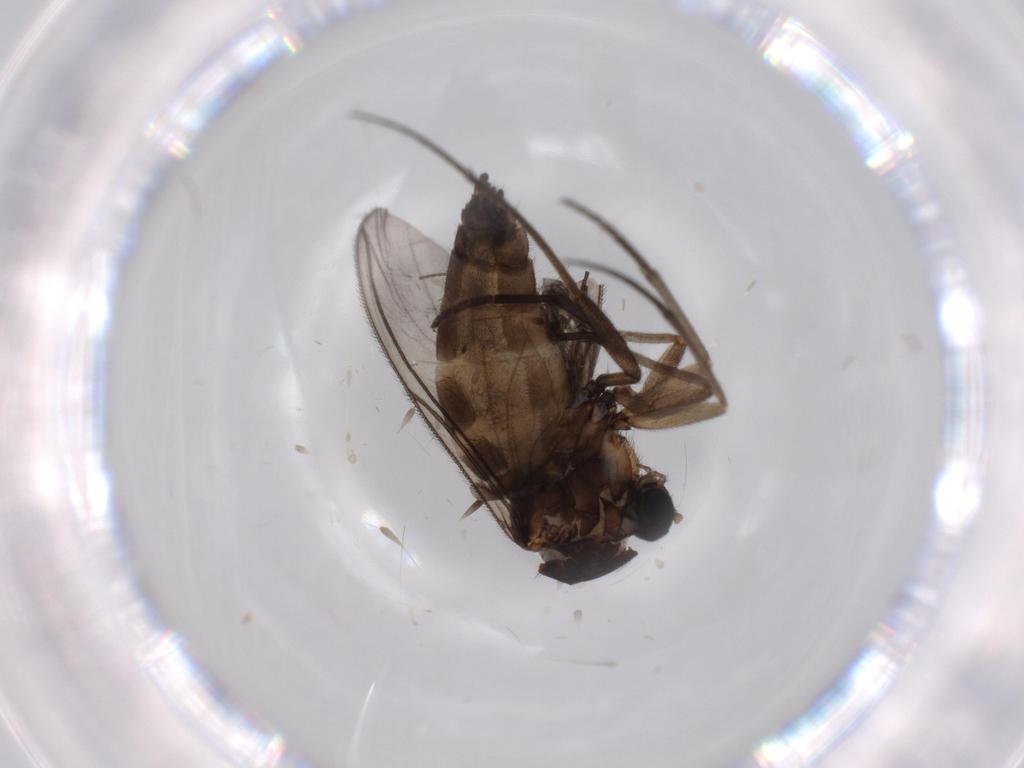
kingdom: Animalia
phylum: Arthropoda
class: Insecta
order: Diptera
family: Sciaridae
